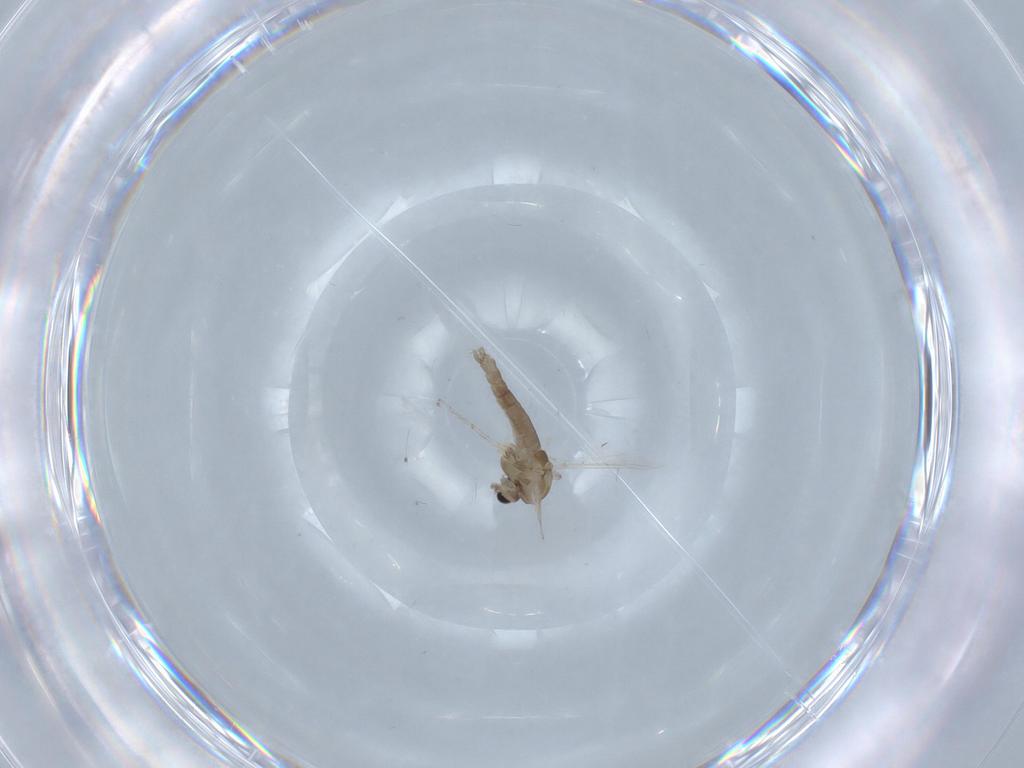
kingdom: Animalia
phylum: Arthropoda
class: Insecta
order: Diptera
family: Chironomidae
